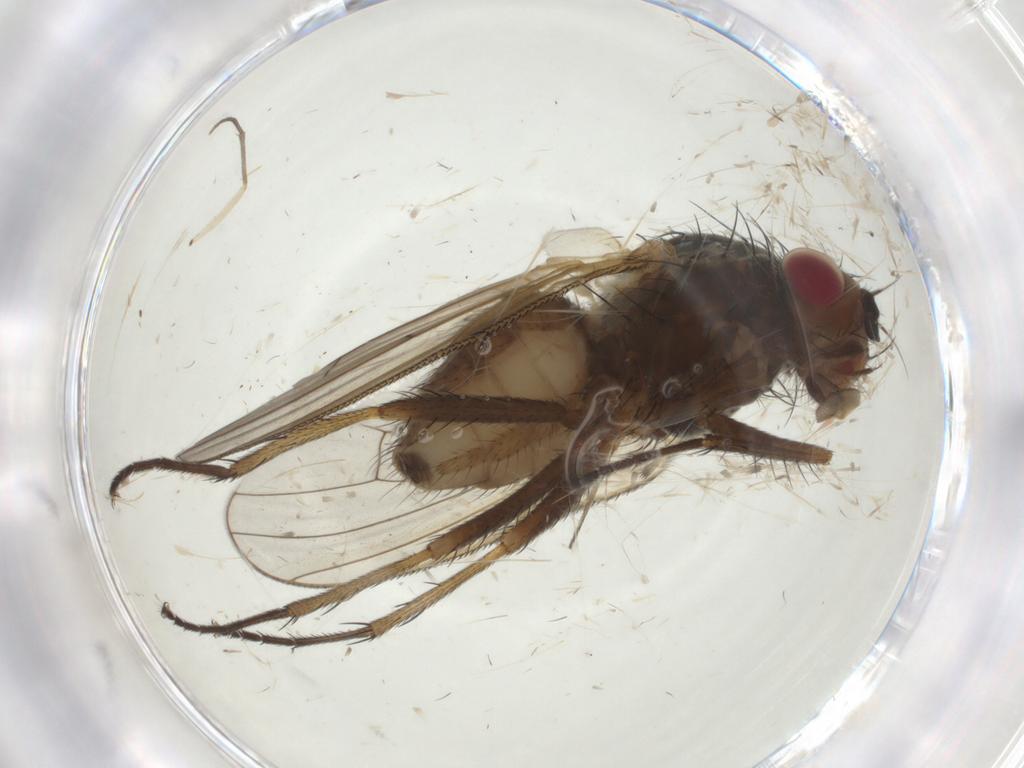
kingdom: Animalia
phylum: Arthropoda
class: Insecta
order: Diptera
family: Anthomyiidae
